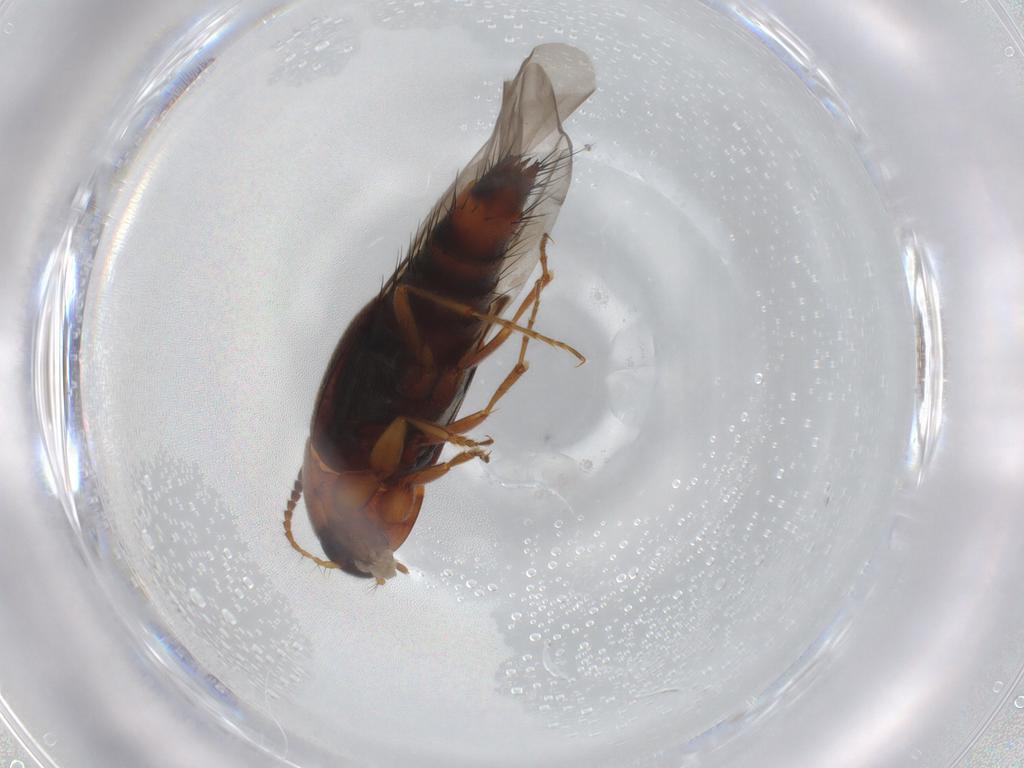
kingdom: Animalia
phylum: Arthropoda
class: Insecta
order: Coleoptera
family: Staphylinidae
